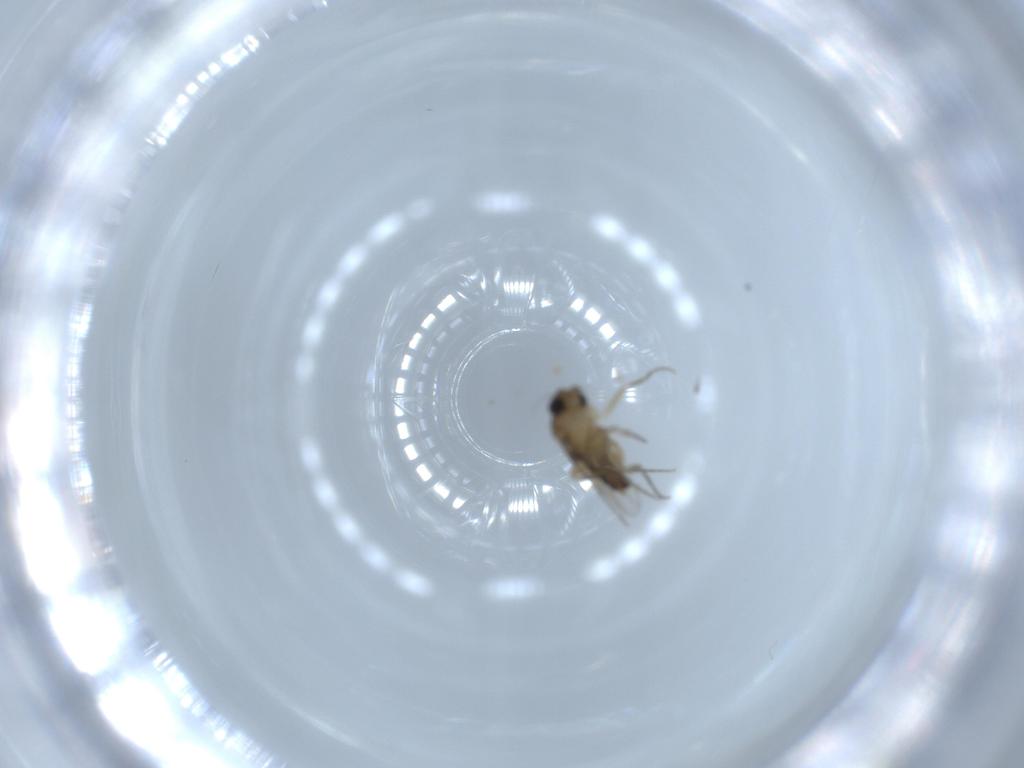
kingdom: Animalia
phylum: Arthropoda
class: Insecta
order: Diptera
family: Phoridae
